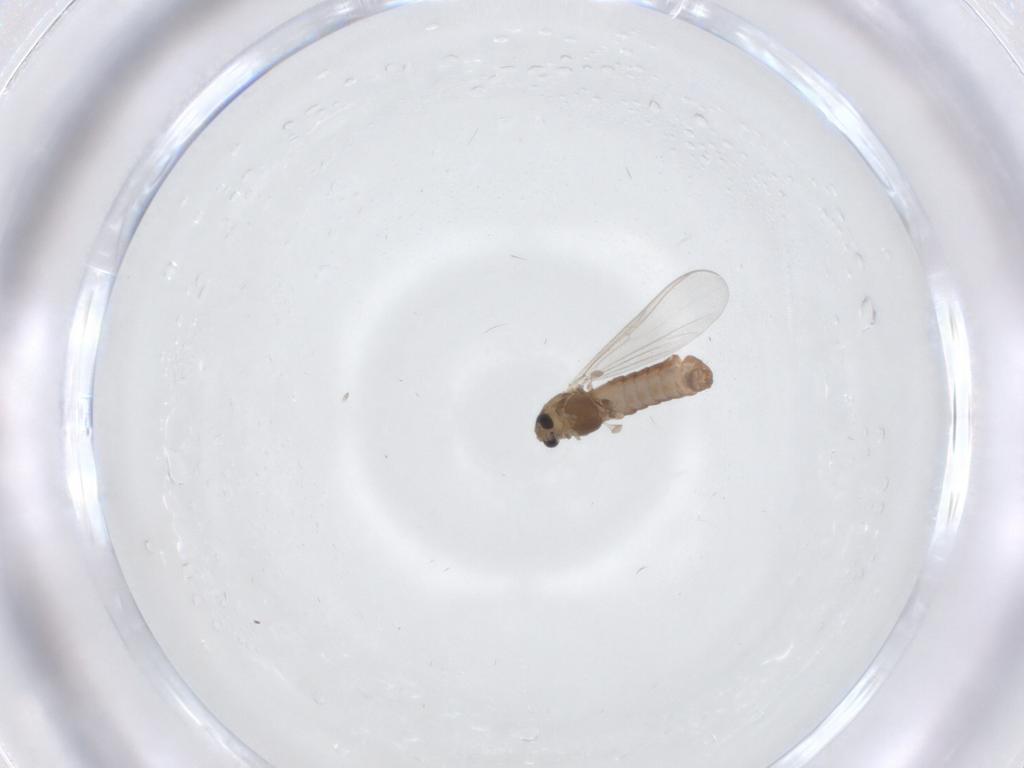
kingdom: Animalia
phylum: Arthropoda
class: Insecta
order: Diptera
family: Chironomidae
